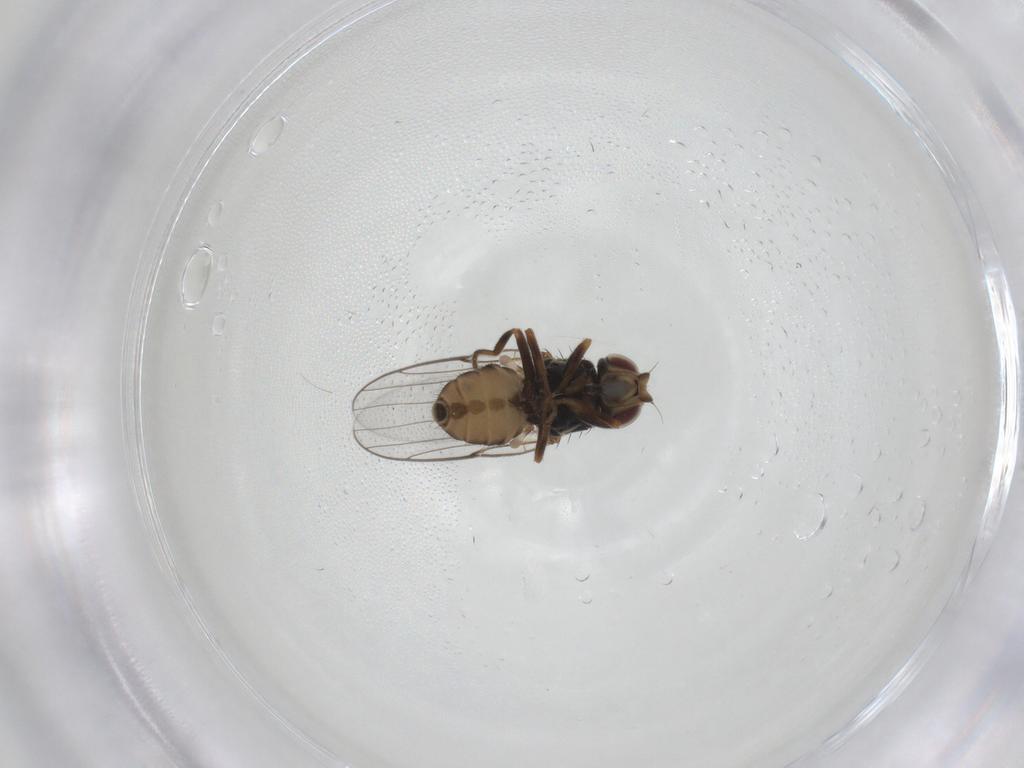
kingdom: Animalia
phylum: Arthropoda
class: Insecta
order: Diptera
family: Chloropidae
